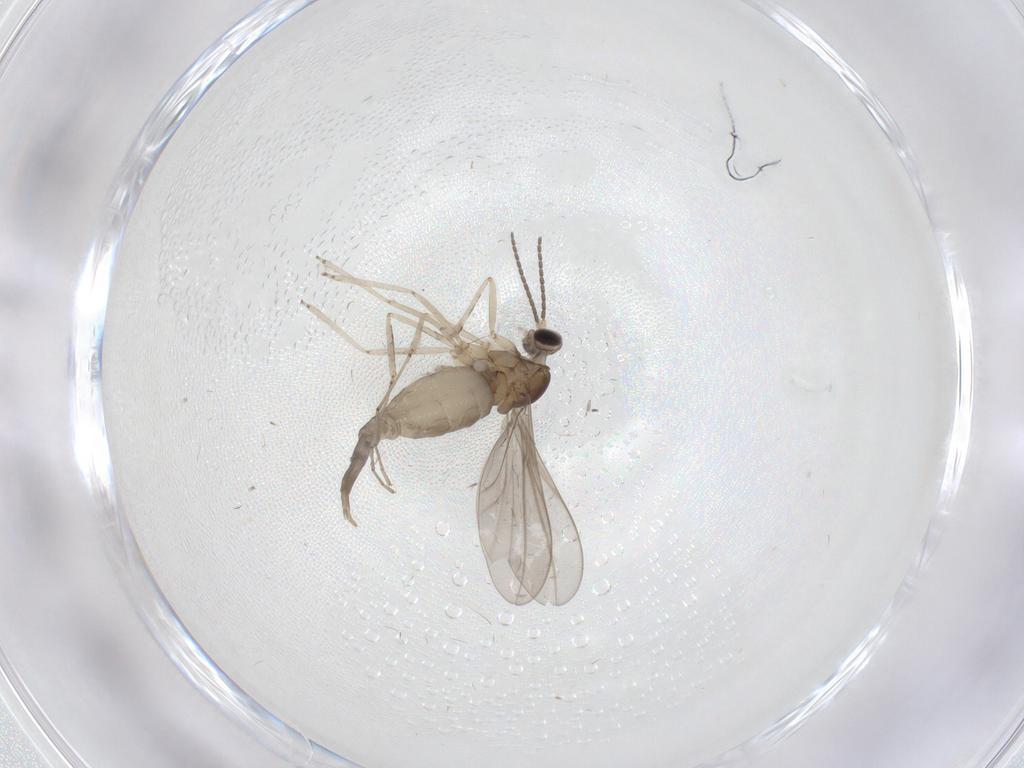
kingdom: Animalia
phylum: Arthropoda
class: Insecta
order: Diptera
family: Cecidomyiidae
